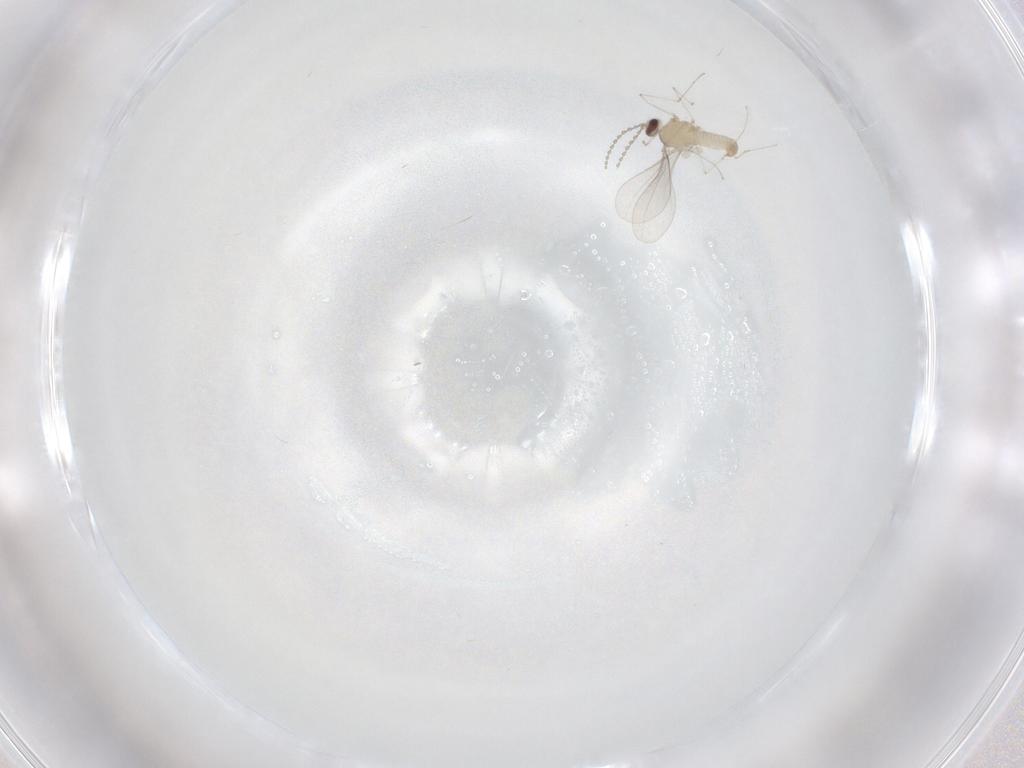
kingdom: Animalia
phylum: Arthropoda
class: Insecta
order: Diptera
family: Cecidomyiidae
